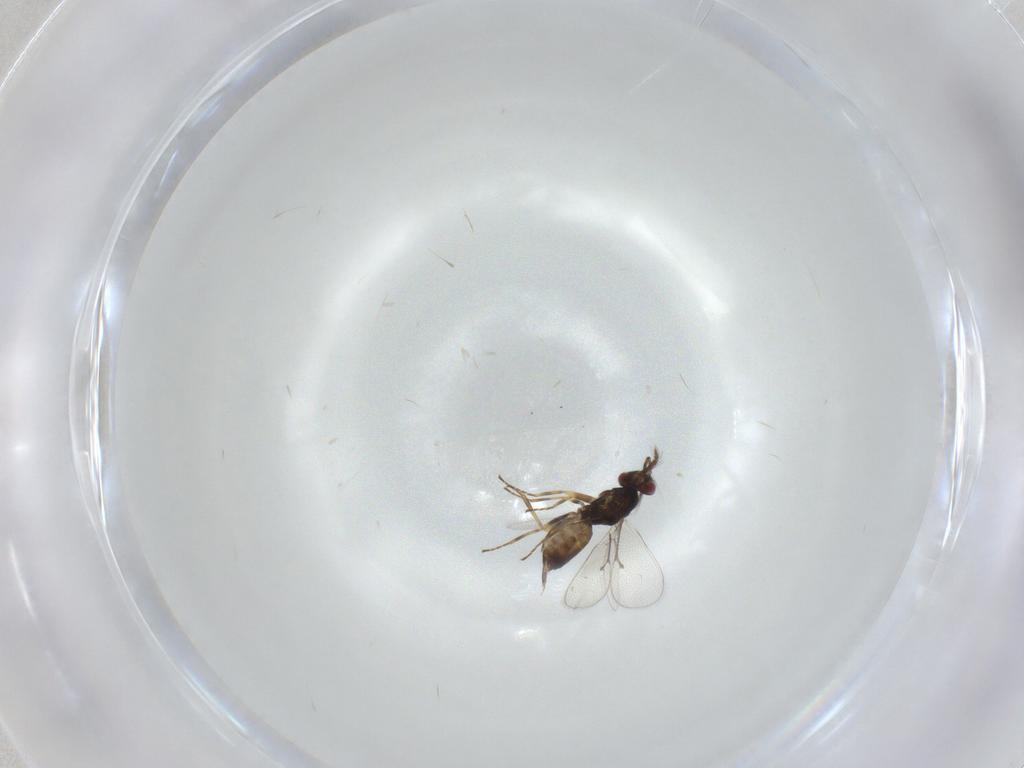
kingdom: Animalia
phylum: Arthropoda
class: Insecta
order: Hymenoptera
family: Eulophidae
